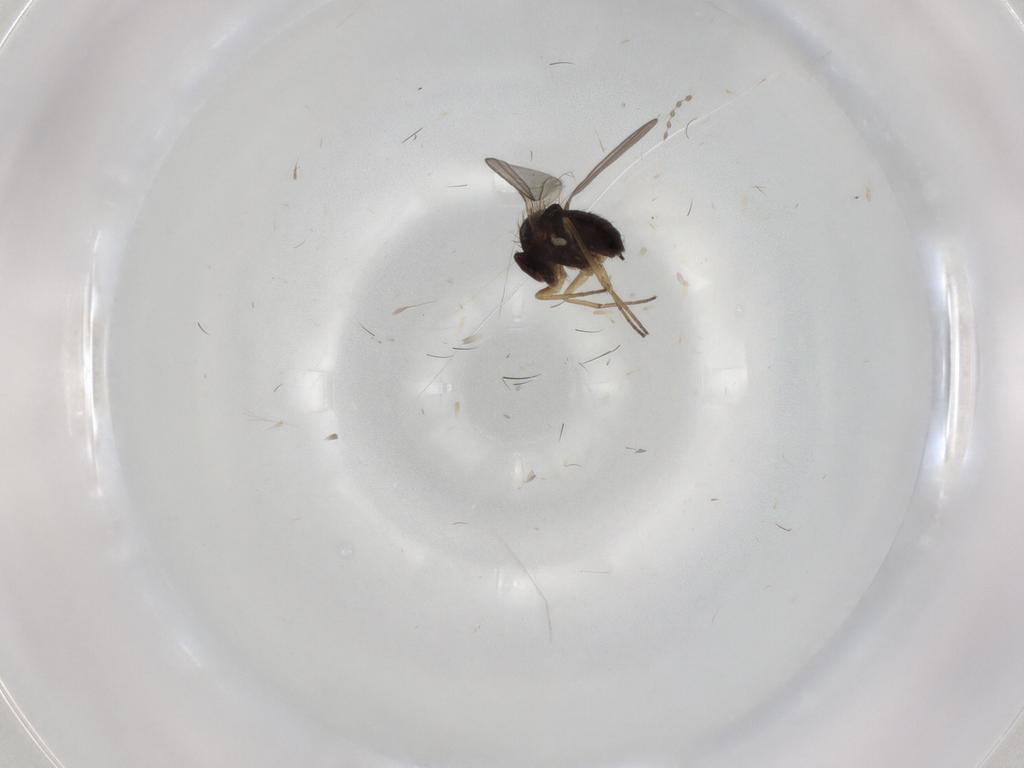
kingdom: Animalia
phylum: Arthropoda
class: Insecta
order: Diptera
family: Dolichopodidae
